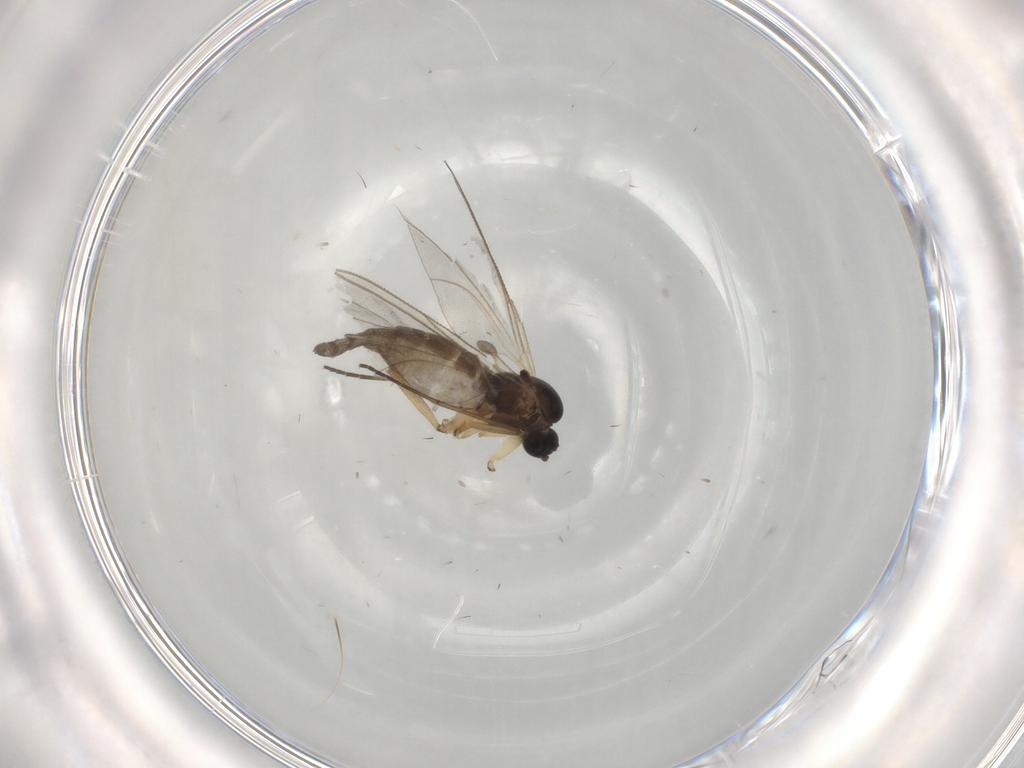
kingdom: Animalia
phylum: Arthropoda
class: Insecta
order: Diptera
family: Sciaridae
